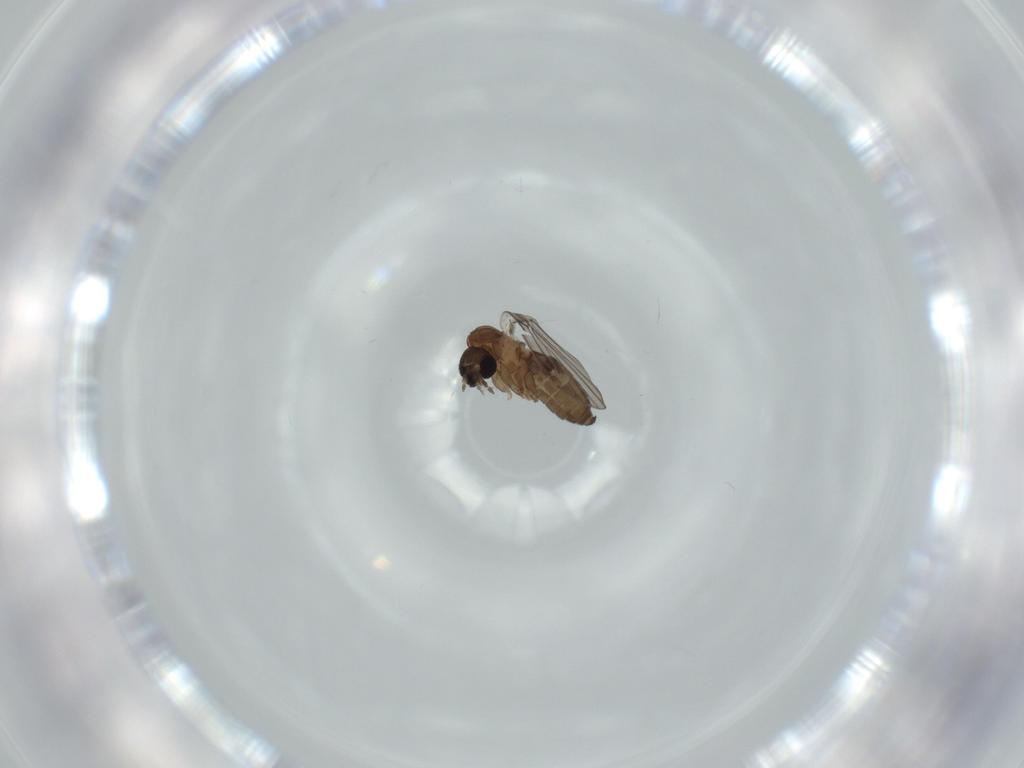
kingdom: Animalia
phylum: Arthropoda
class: Insecta
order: Diptera
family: Psychodidae
